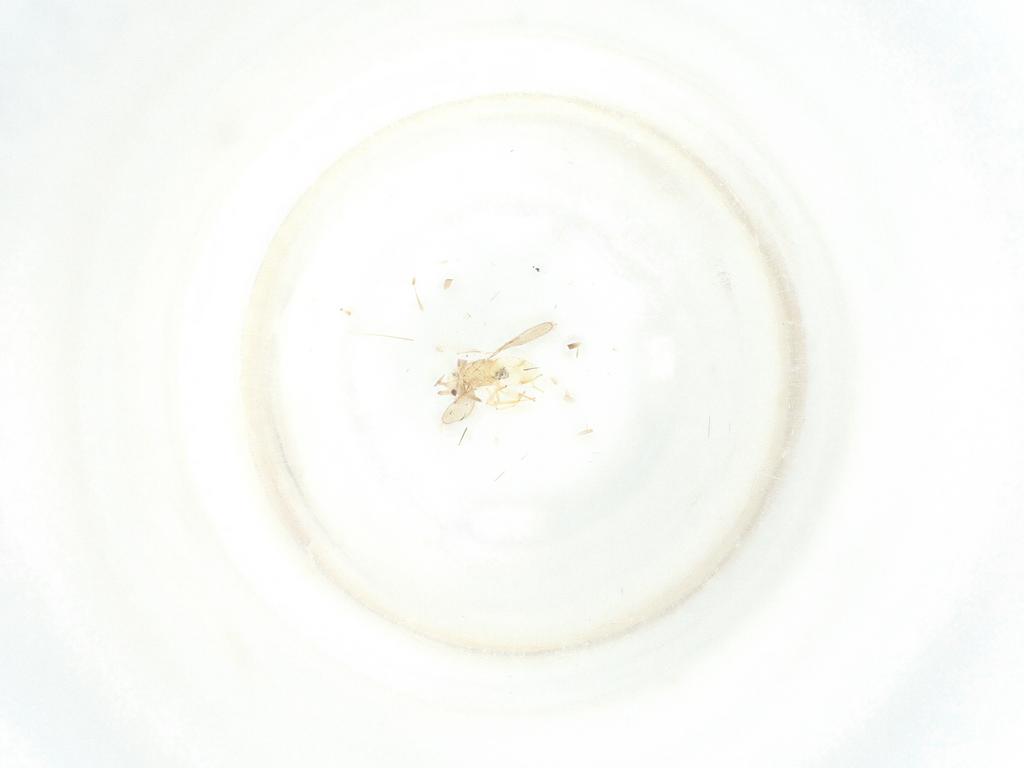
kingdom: Animalia
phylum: Arthropoda
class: Insecta
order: Hymenoptera
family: Aphelinidae
